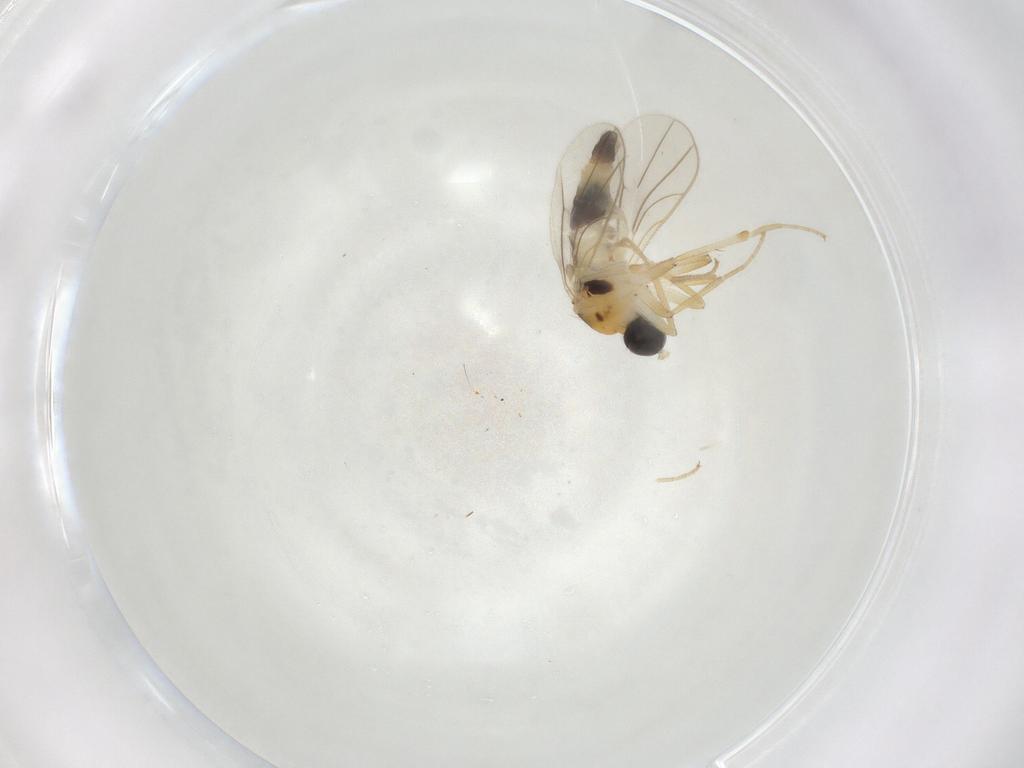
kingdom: Animalia
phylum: Arthropoda
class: Insecta
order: Diptera
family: Hybotidae
